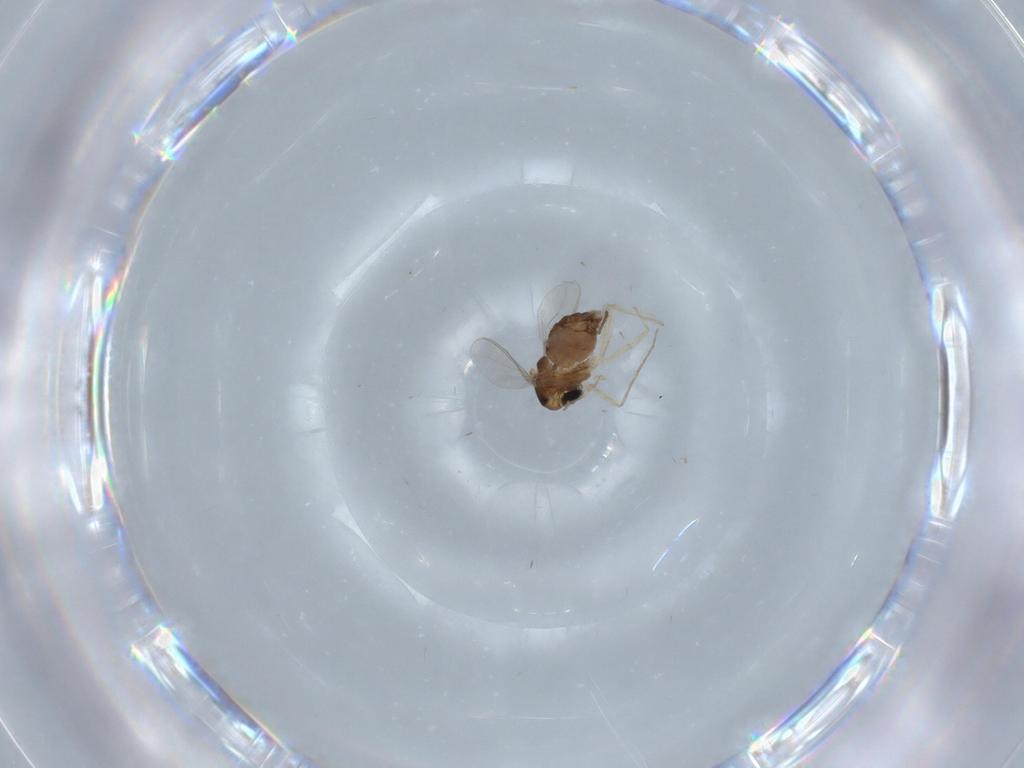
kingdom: Animalia
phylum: Arthropoda
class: Insecta
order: Diptera
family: Chironomidae
